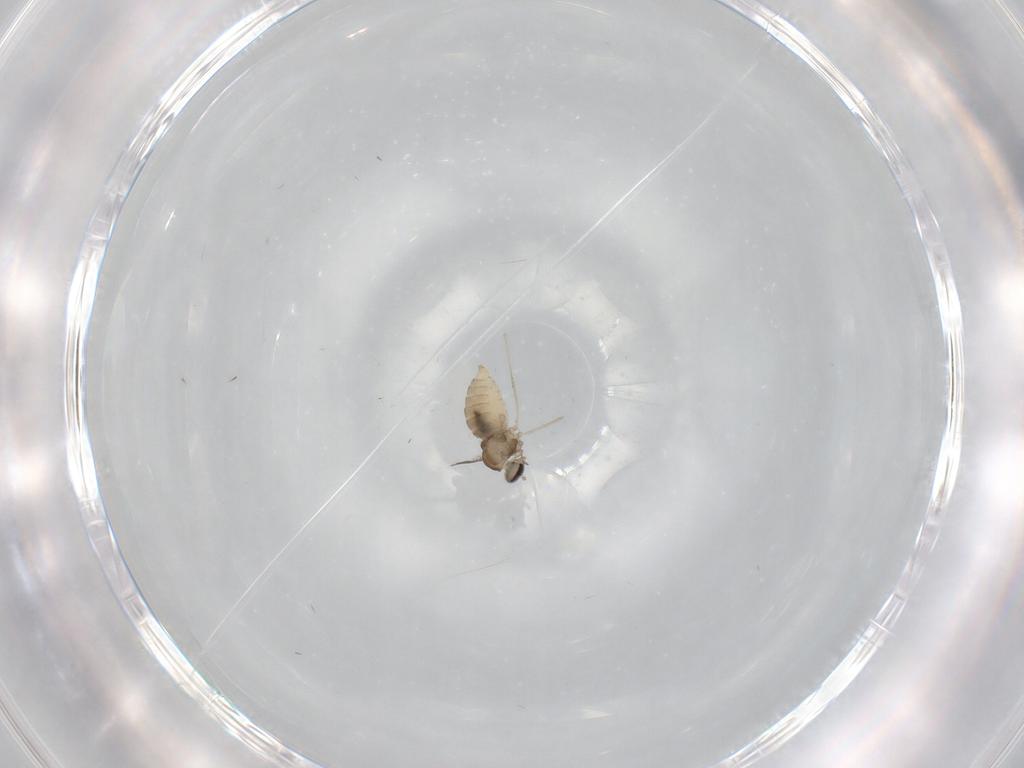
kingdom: Animalia
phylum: Arthropoda
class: Insecta
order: Diptera
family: Cecidomyiidae
